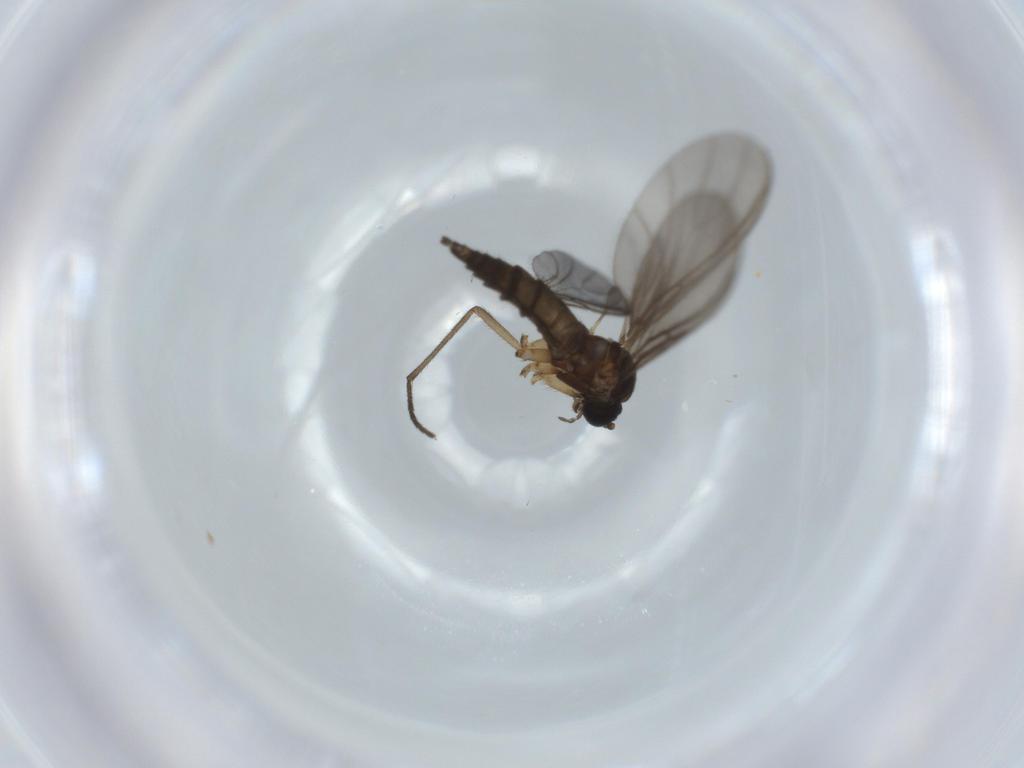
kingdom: Animalia
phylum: Arthropoda
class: Insecta
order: Diptera
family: Sciaridae
